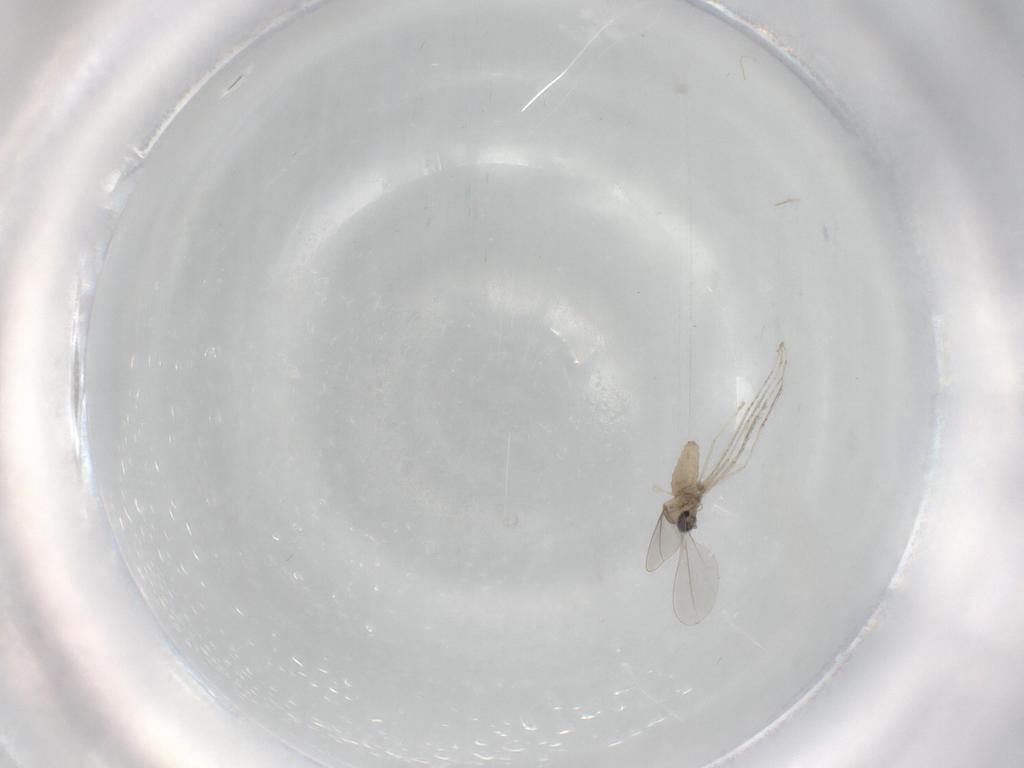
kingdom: Animalia
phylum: Arthropoda
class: Insecta
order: Diptera
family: Cecidomyiidae
